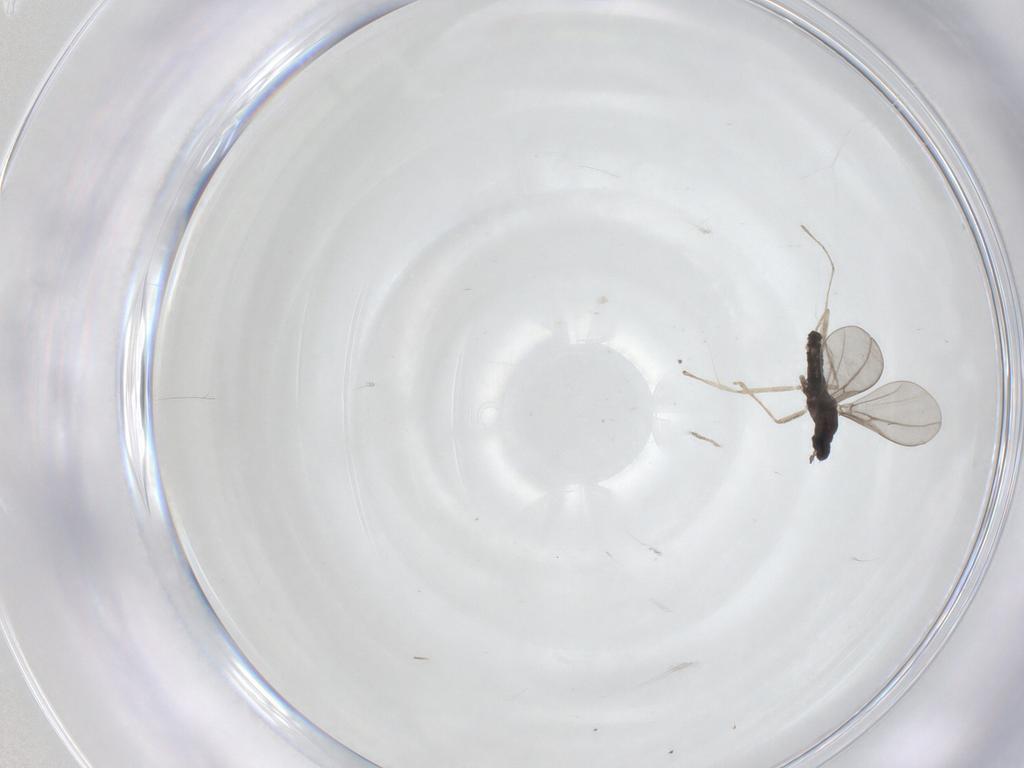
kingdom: Animalia
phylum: Arthropoda
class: Insecta
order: Diptera
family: Cecidomyiidae
